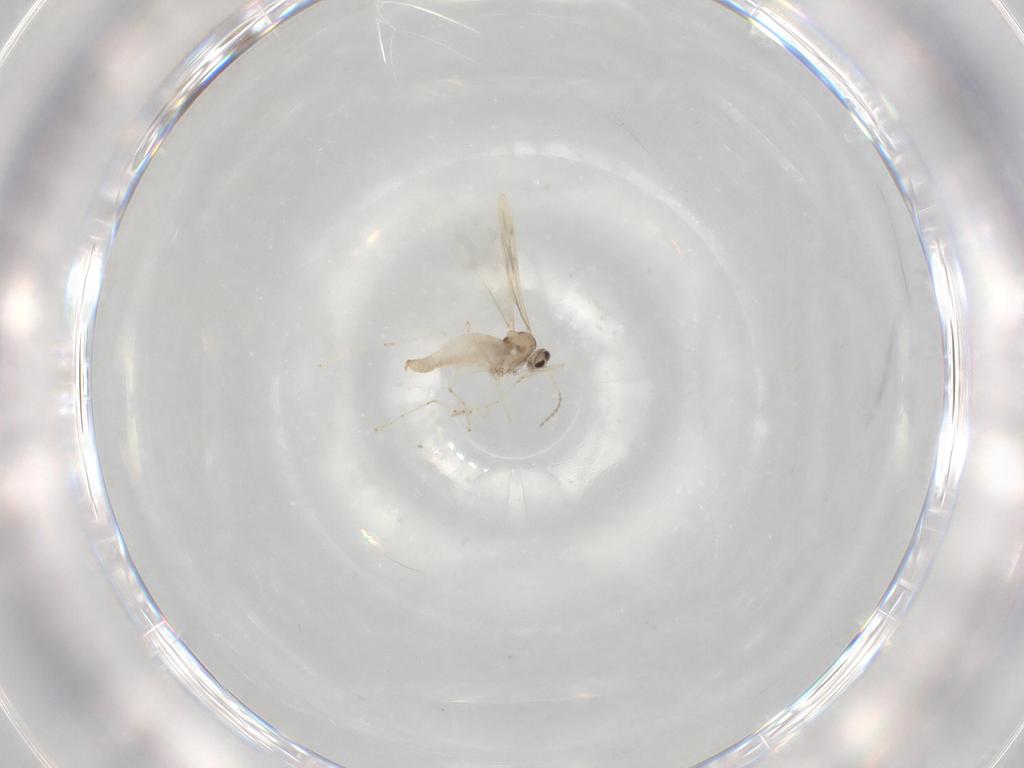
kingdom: Animalia
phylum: Arthropoda
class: Insecta
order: Diptera
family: Cecidomyiidae
